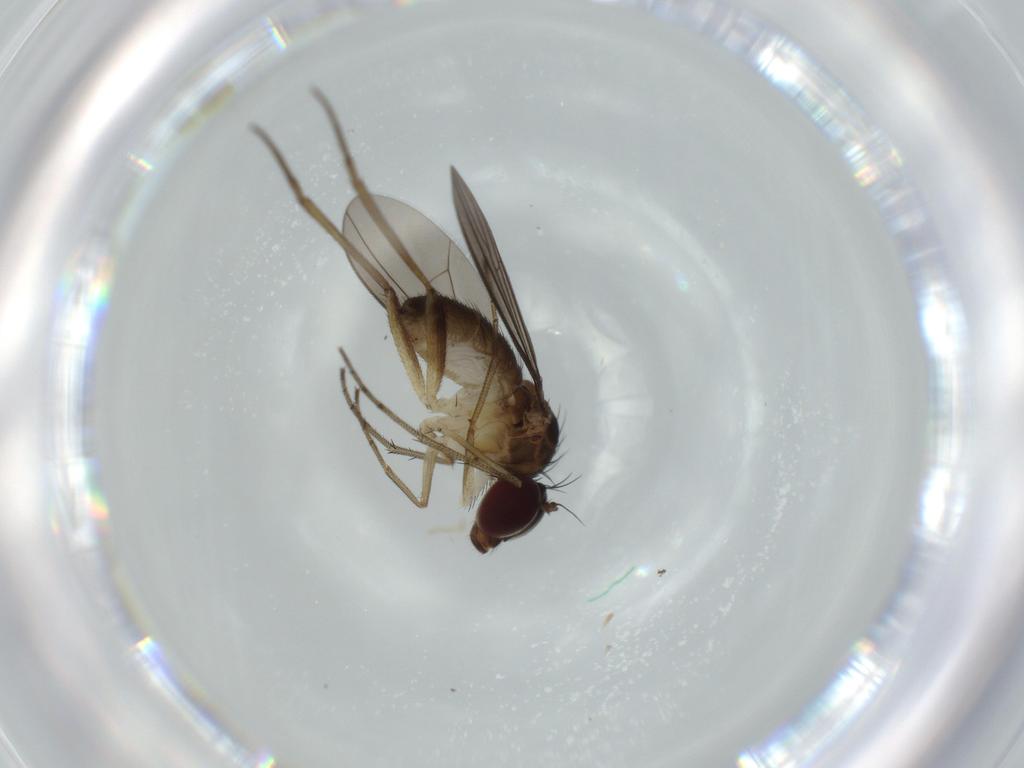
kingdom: Animalia
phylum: Arthropoda
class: Insecta
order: Diptera
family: Dolichopodidae
